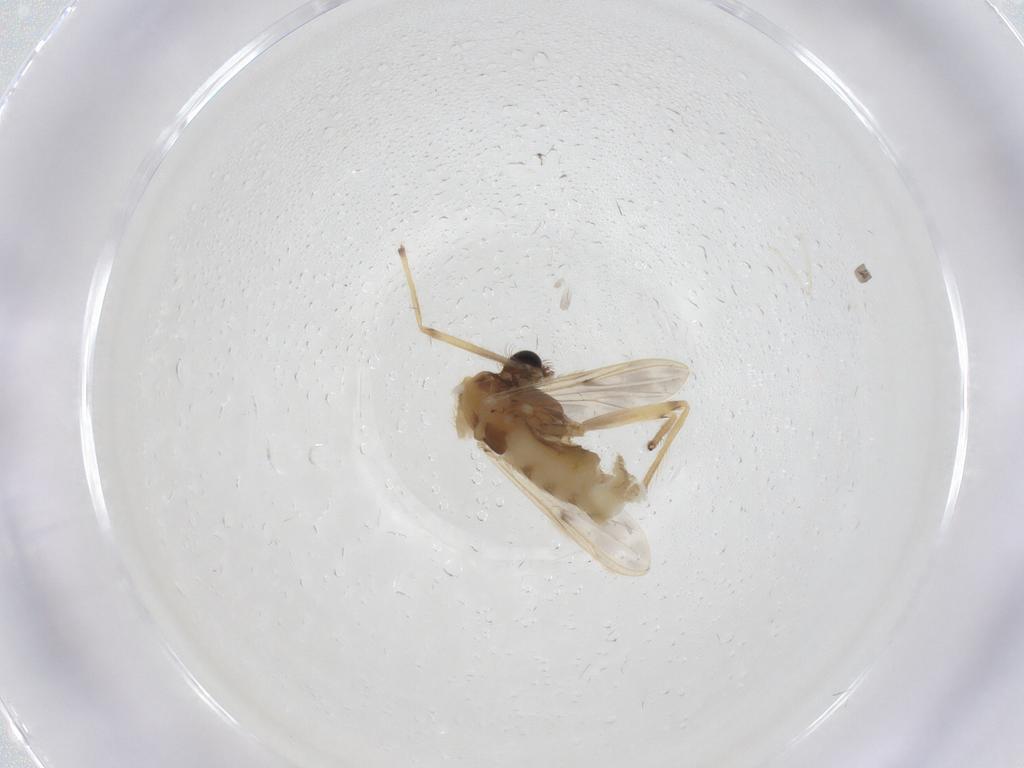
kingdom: Animalia
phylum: Arthropoda
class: Insecta
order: Diptera
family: Chironomidae
